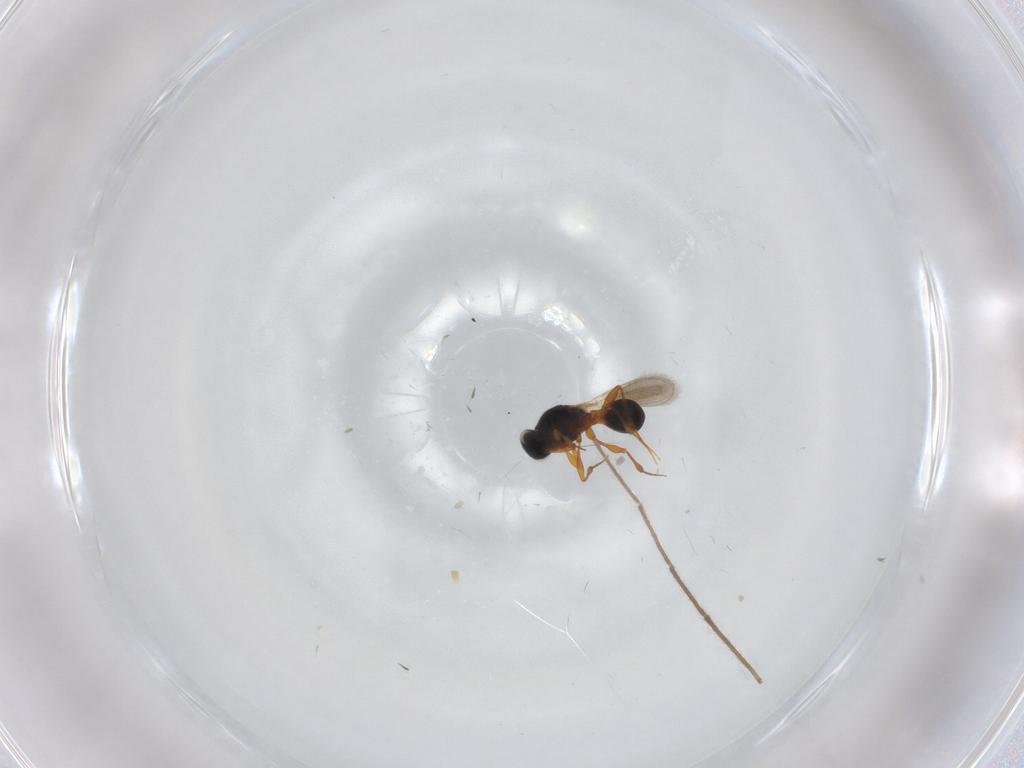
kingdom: Animalia
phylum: Arthropoda
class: Insecta
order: Hymenoptera
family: Platygastridae
